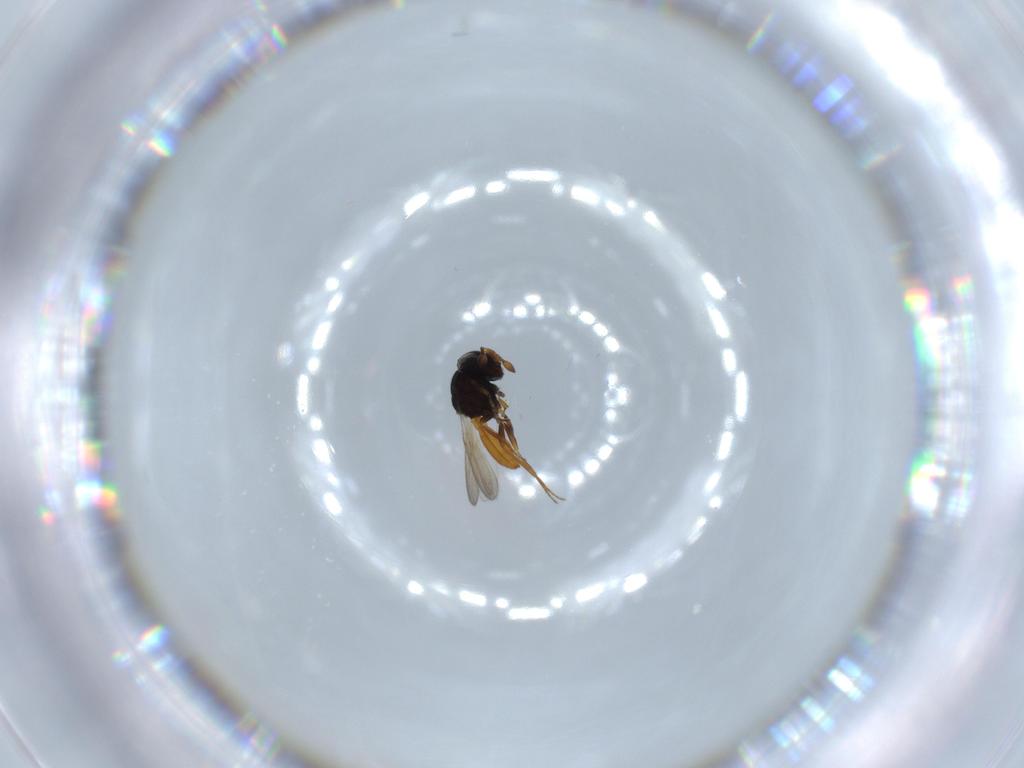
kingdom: Animalia
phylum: Arthropoda
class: Insecta
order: Hymenoptera
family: Scelionidae
